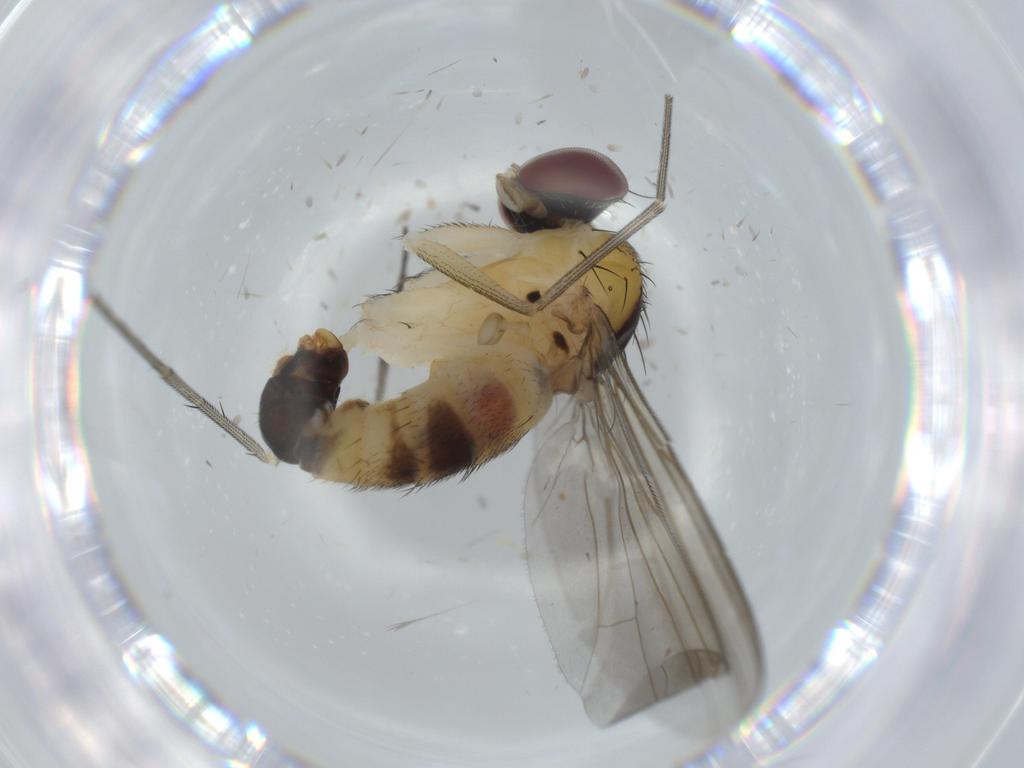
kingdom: Animalia
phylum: Arthropoda
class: Insecta
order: Diptera
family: Dolichopodidae
